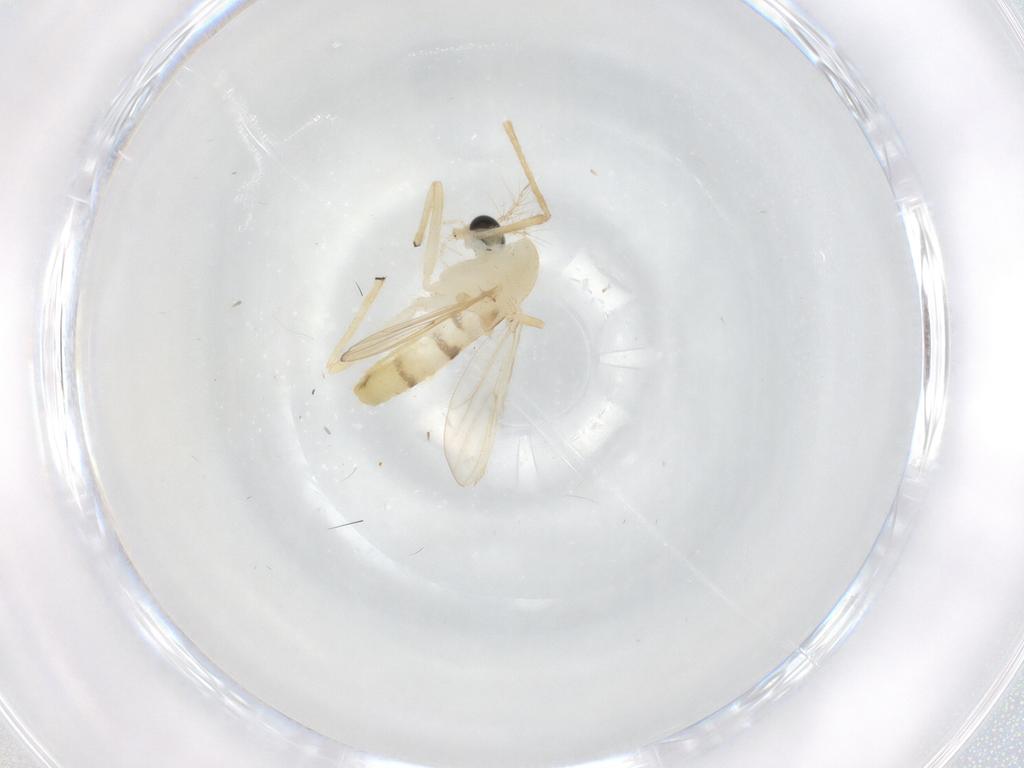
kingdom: Animalia
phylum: Arthropoda
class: Insecta
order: Diptera
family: Chironomidae
